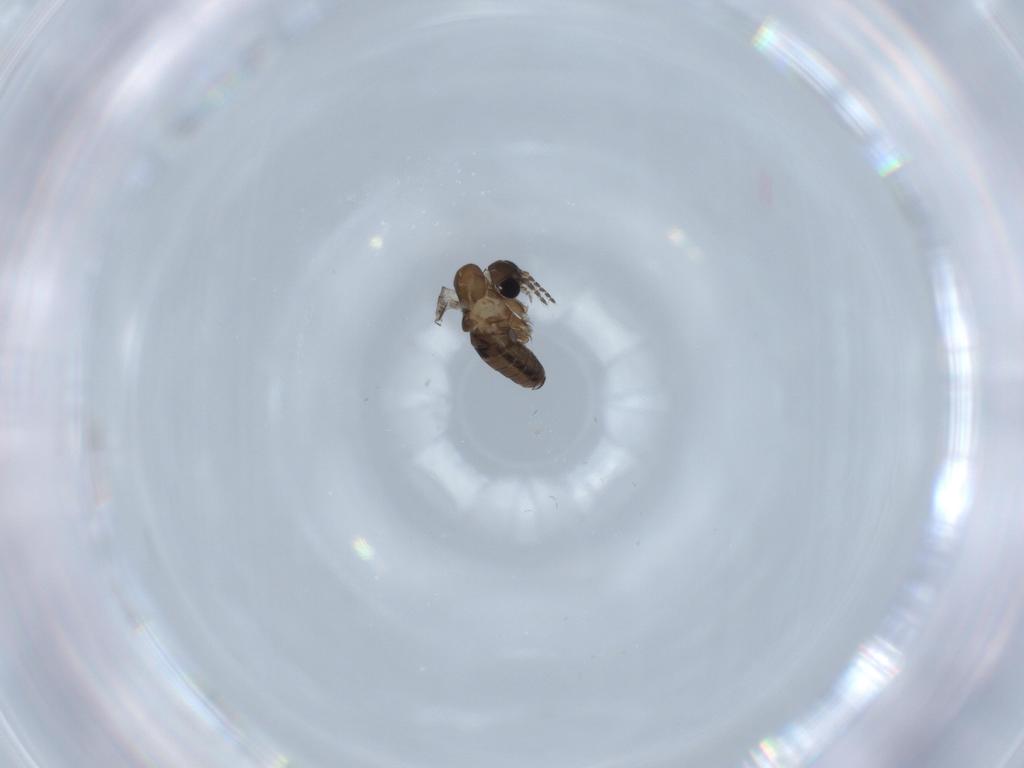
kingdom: Animalia
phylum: Arthropoda
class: Insecta
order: Diptera
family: Psychodidae
